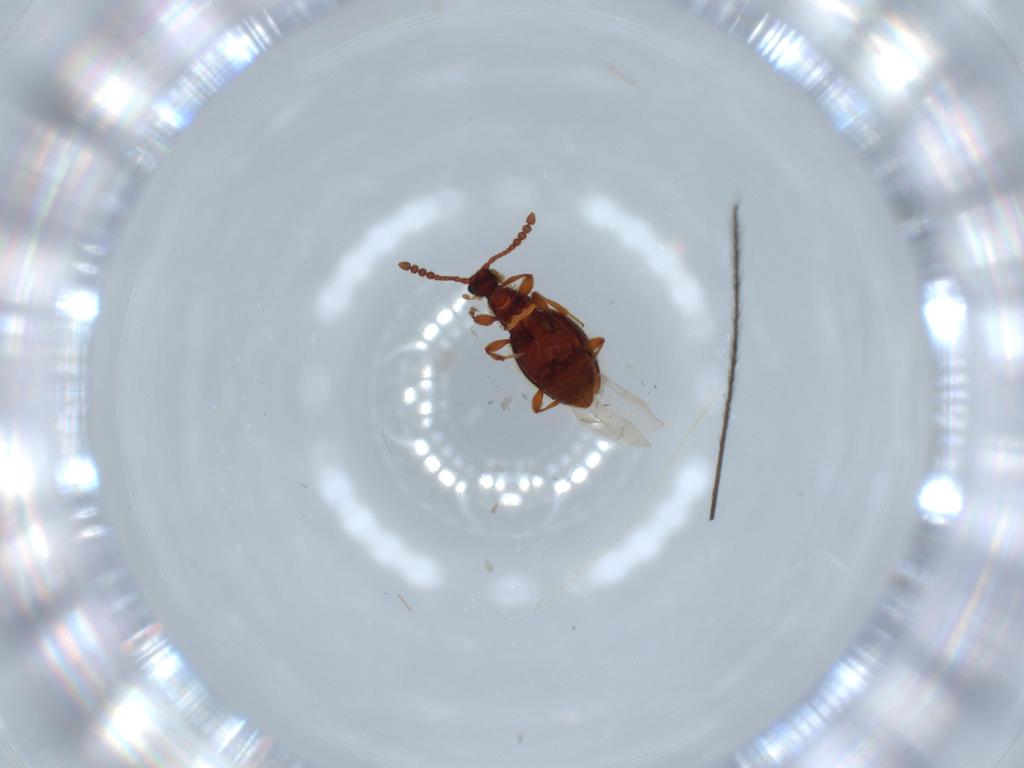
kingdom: Animalia
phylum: Arthropoda
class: Insecta
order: Coleoptera
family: Staphylinidae
